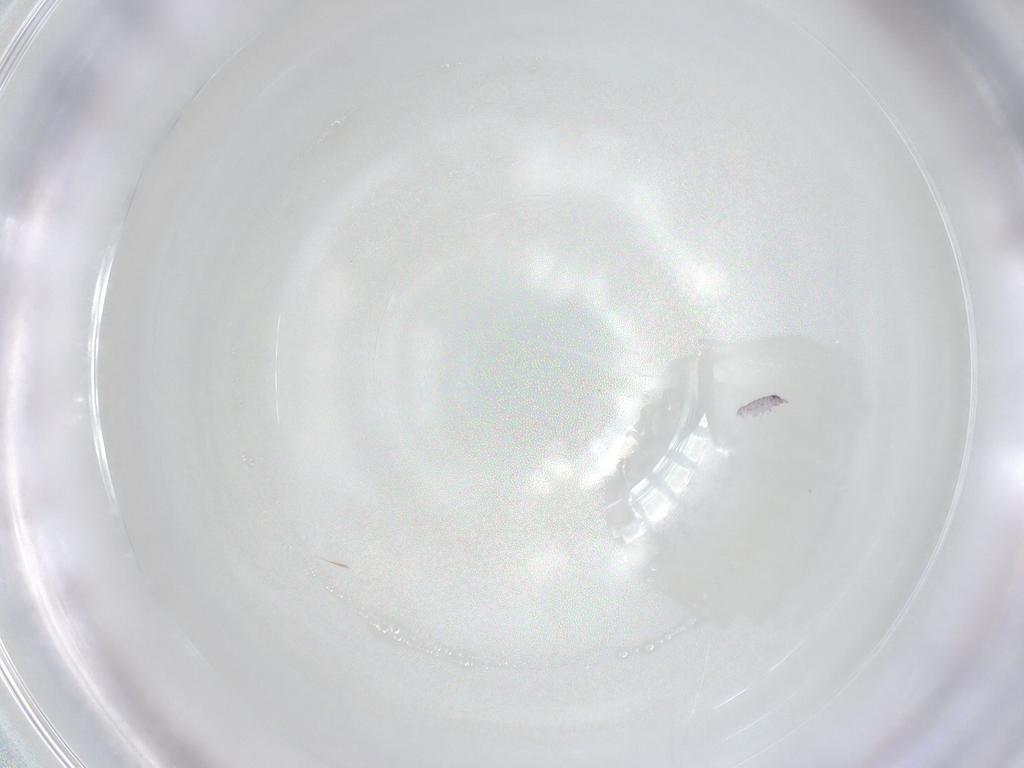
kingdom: Animalia
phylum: Arthropoda
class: Collembola
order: Poduromorpha
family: Neanuridae
